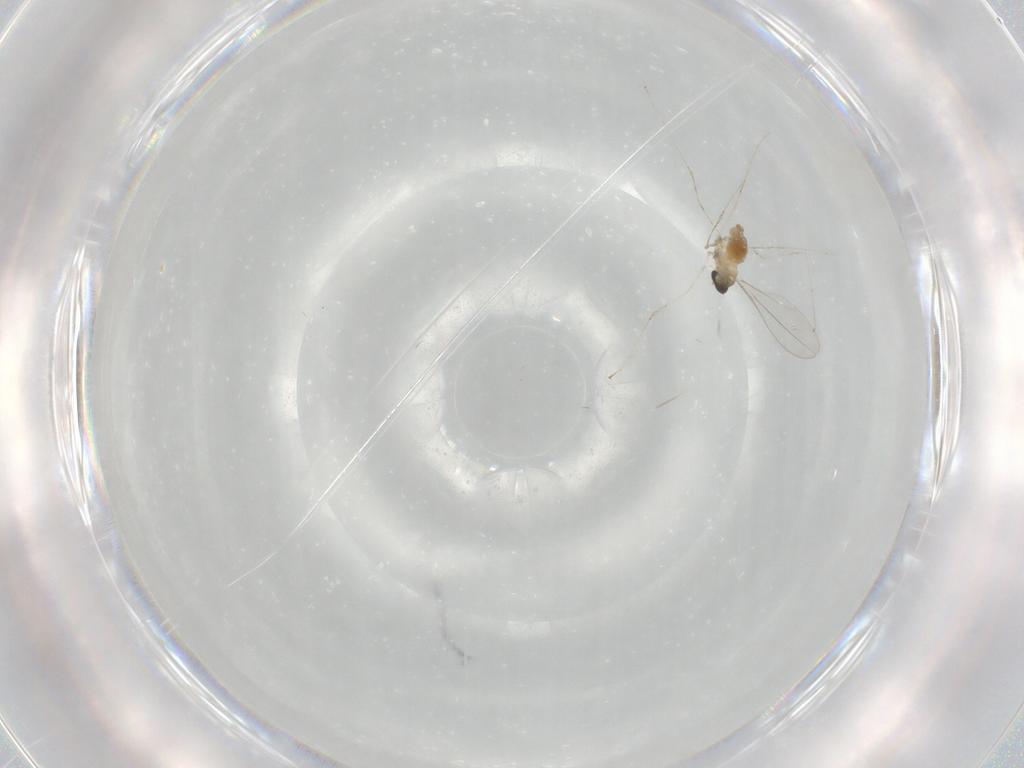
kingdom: Animalia
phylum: Arthropoda
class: Insecta
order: Diptera
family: Cecidomyiidae
